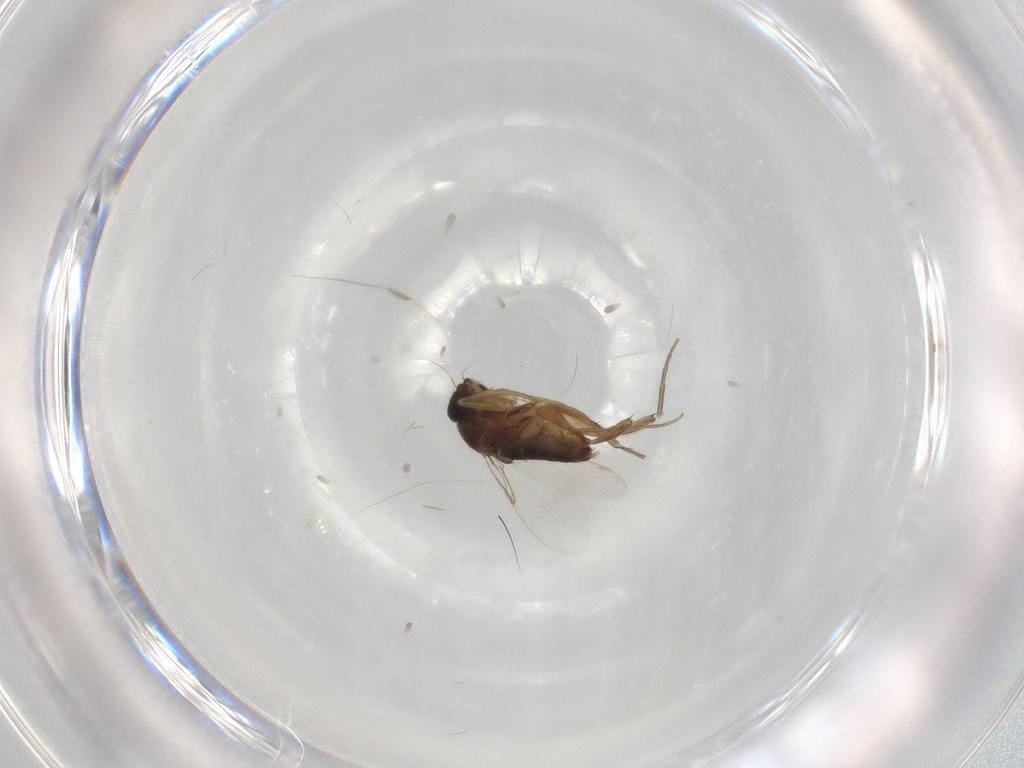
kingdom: Animalia
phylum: Arthropoda
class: Insecta
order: Diptera
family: Phoridae
